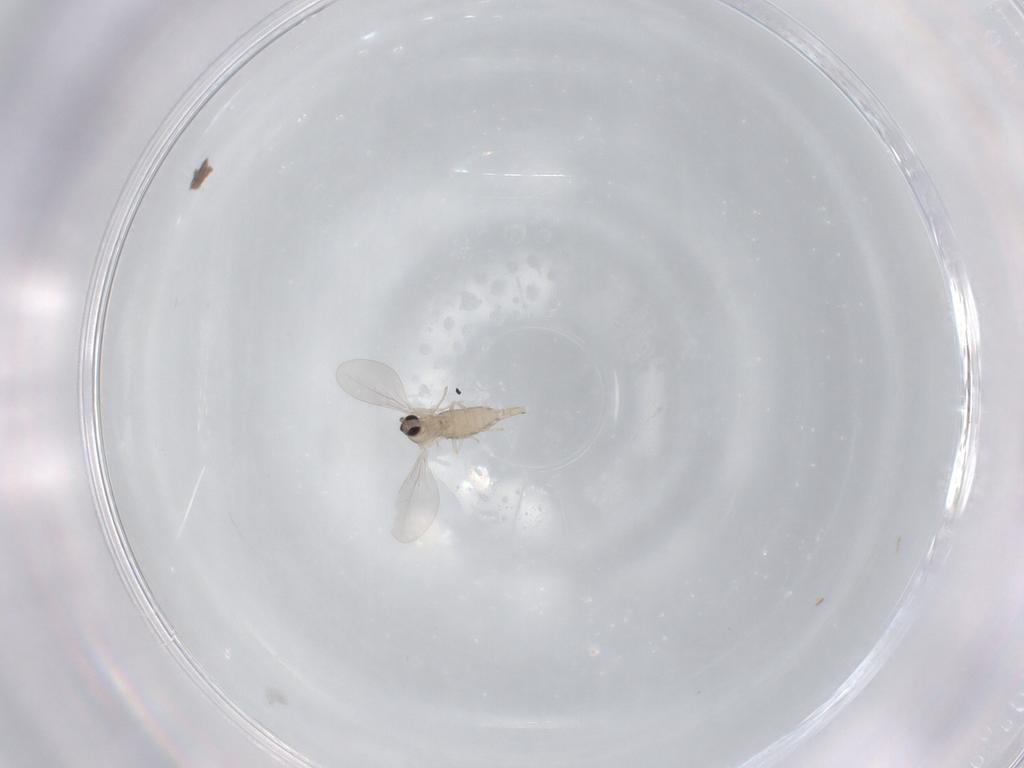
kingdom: Animalia
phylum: Arthropoda
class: Insecta
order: Diptera
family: Cecidomyiidae
